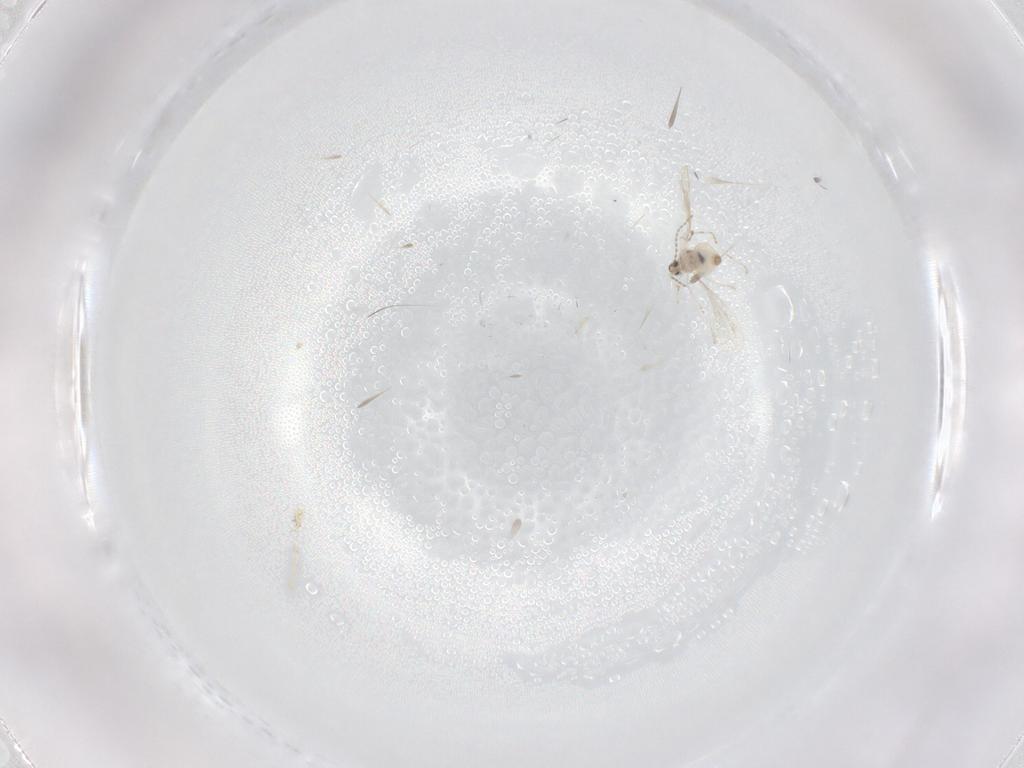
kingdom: Animalia
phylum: Arthropoda
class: Insecta
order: Diptera
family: Cecidomyiidae
